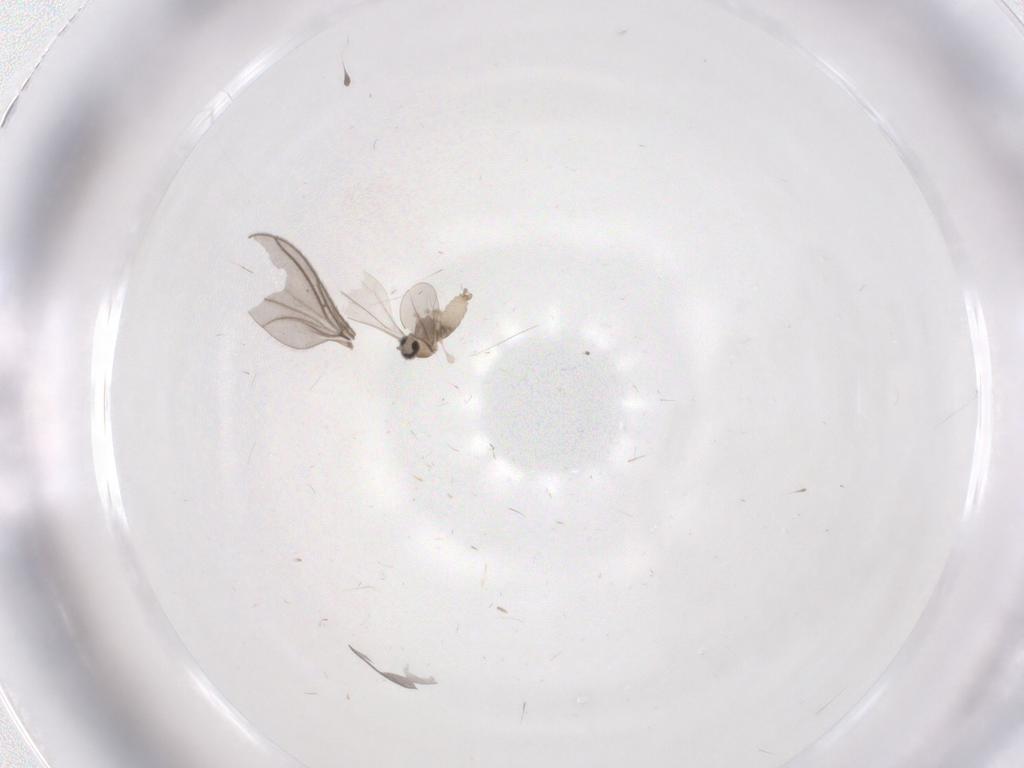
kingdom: Animalia
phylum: Arthropoda
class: Insecta
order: Diptera
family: Cecidomyiidae
